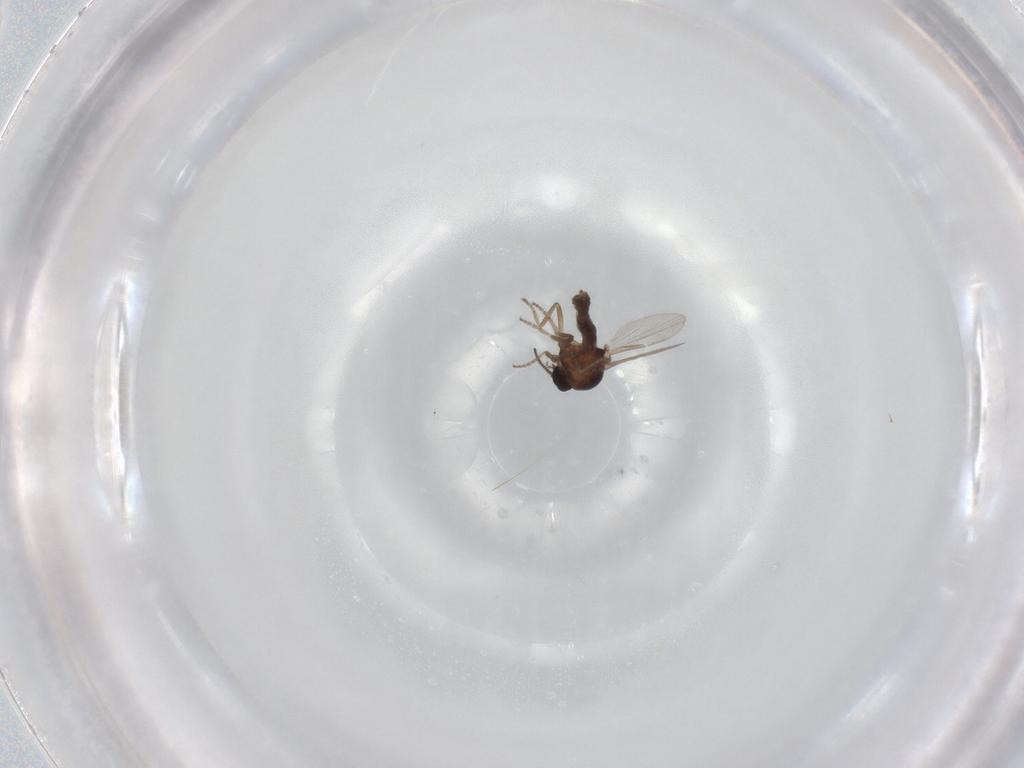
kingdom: Animalia
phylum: Arthropoda
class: Insecta
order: Diptera
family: Ceratopogonidae
